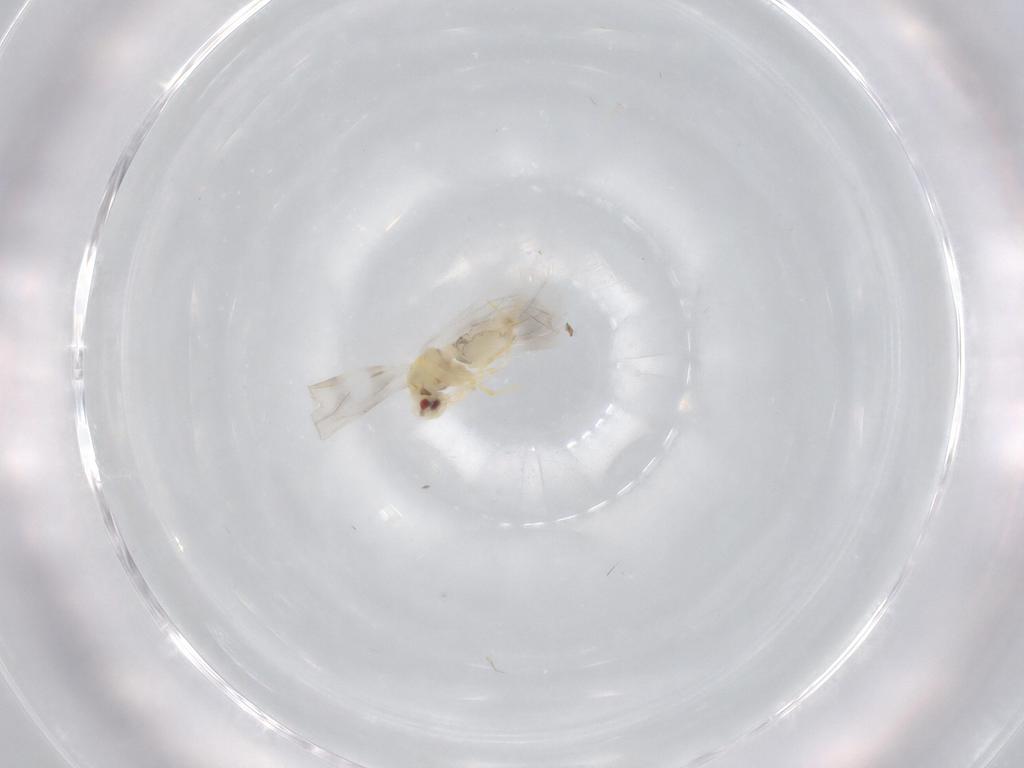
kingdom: Animalia
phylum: Arthropoda
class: Insecta
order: Hemiptera
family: Aleyrodidae
